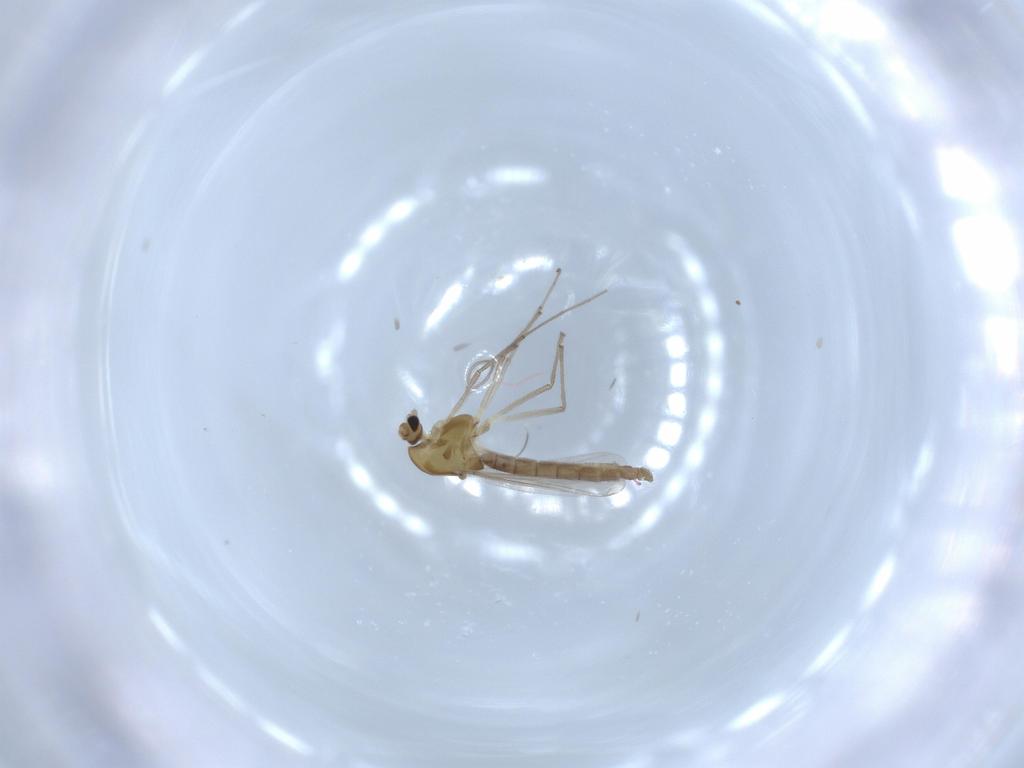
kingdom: Animalia
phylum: Arthropoda
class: Insecta
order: Diptera
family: Chironomidae
